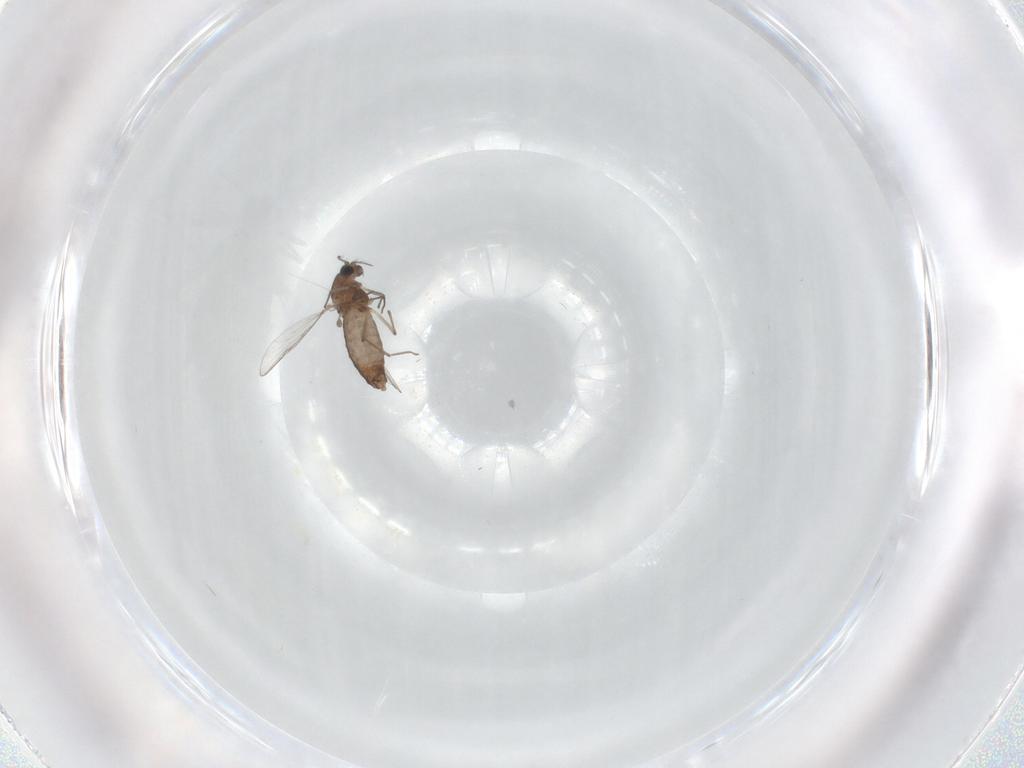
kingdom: Animalia
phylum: Arthropoda
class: Insecta
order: Diptera
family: Chironomidae
